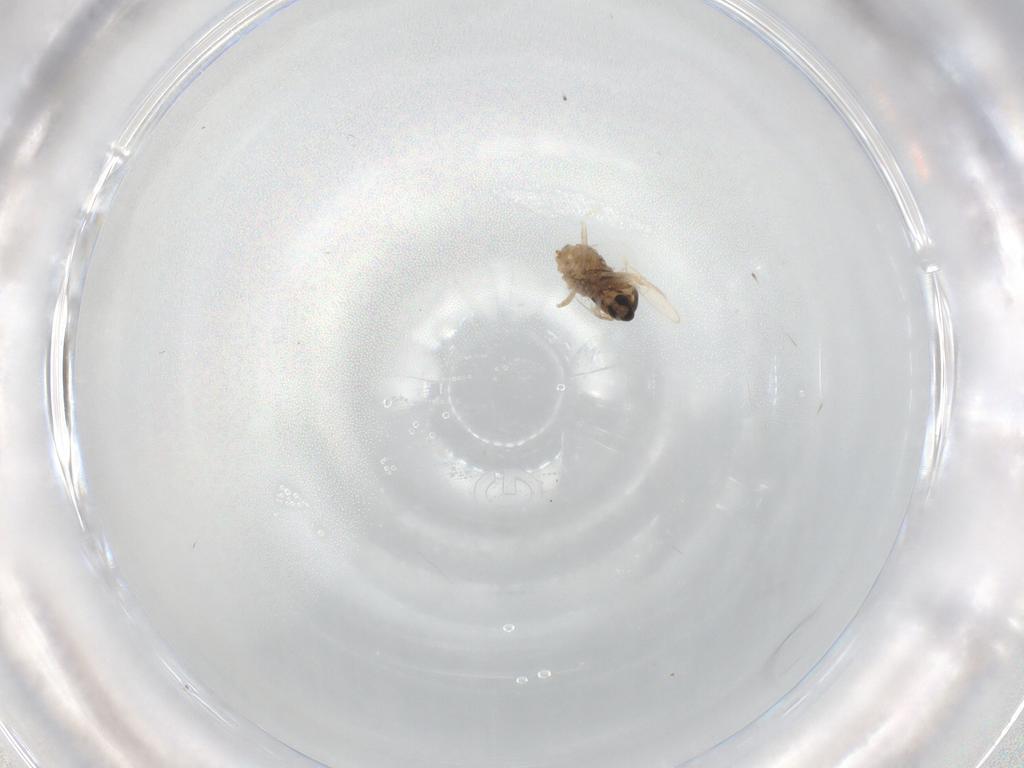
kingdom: Animalia
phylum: Arthropoda
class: Insecta
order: Diptera
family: Cecidomyiidae
